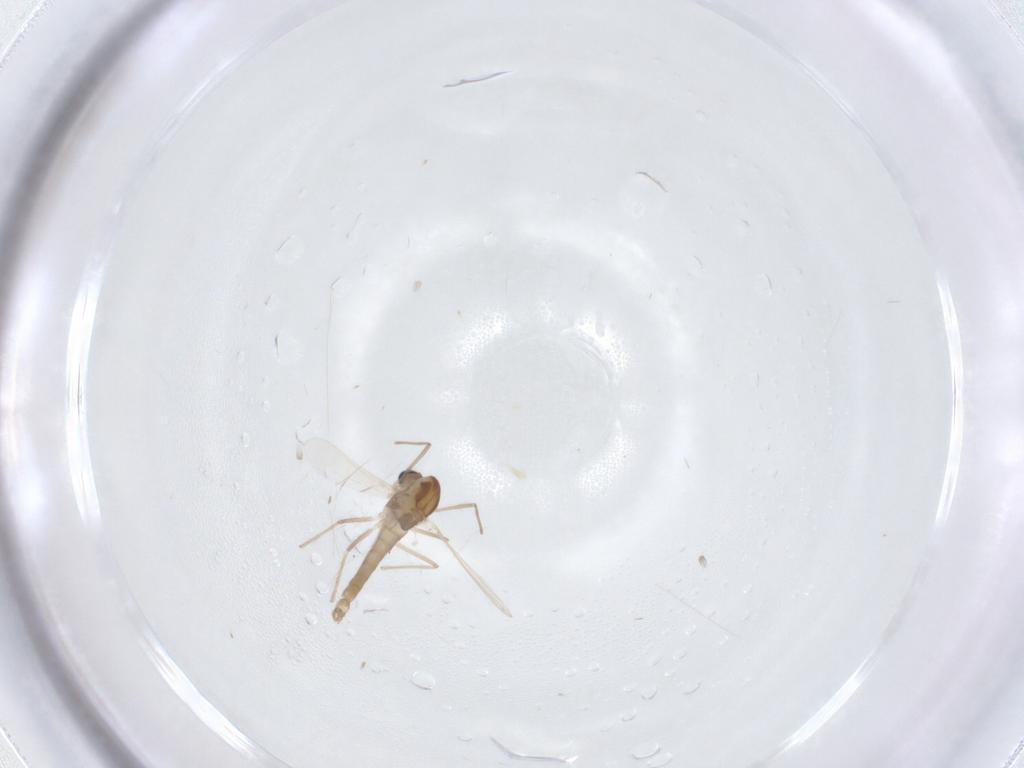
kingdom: Animalia
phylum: Arthropoda
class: Insecta
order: Diptera
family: Chironomidae
